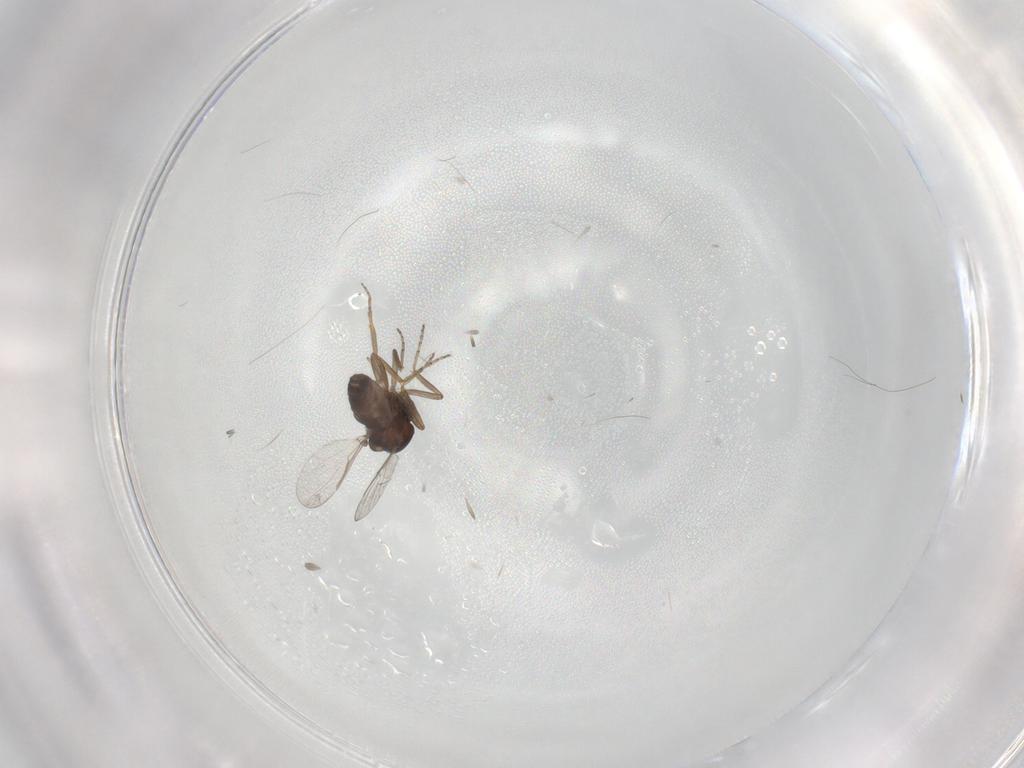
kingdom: Animalia
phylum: Arthropoda
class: Insecta
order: Diptera
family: Ceratopogonidae
